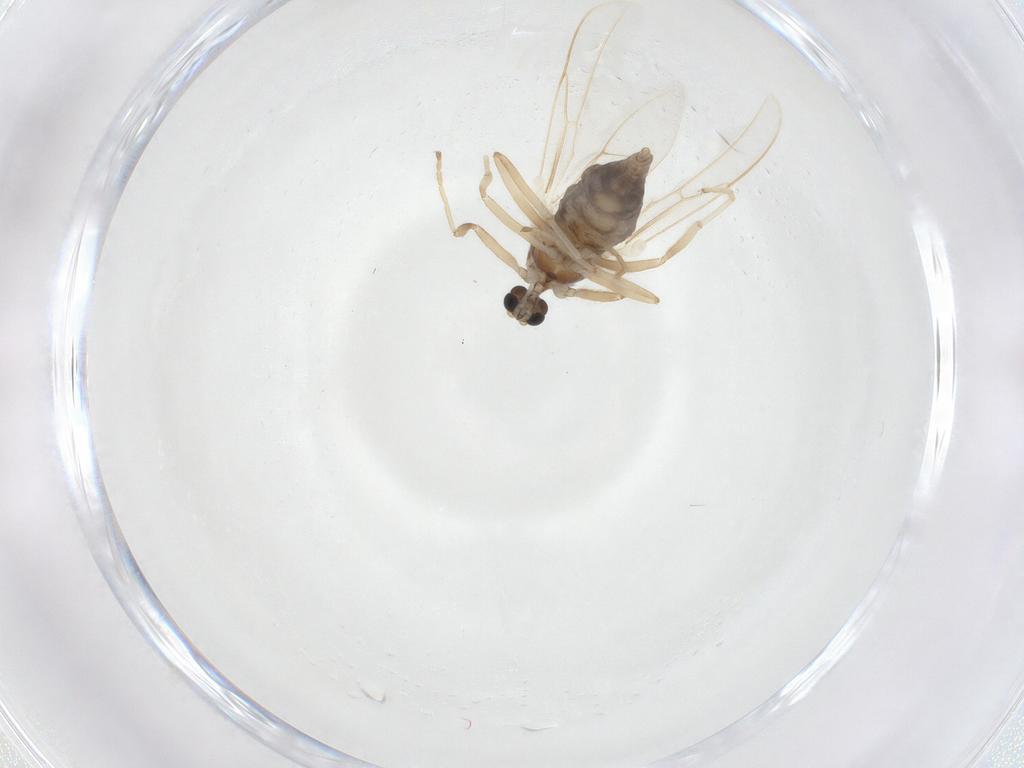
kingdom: Animalia
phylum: Arthropoda
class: Insecta
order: Diptera
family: Cecidomyiidae
